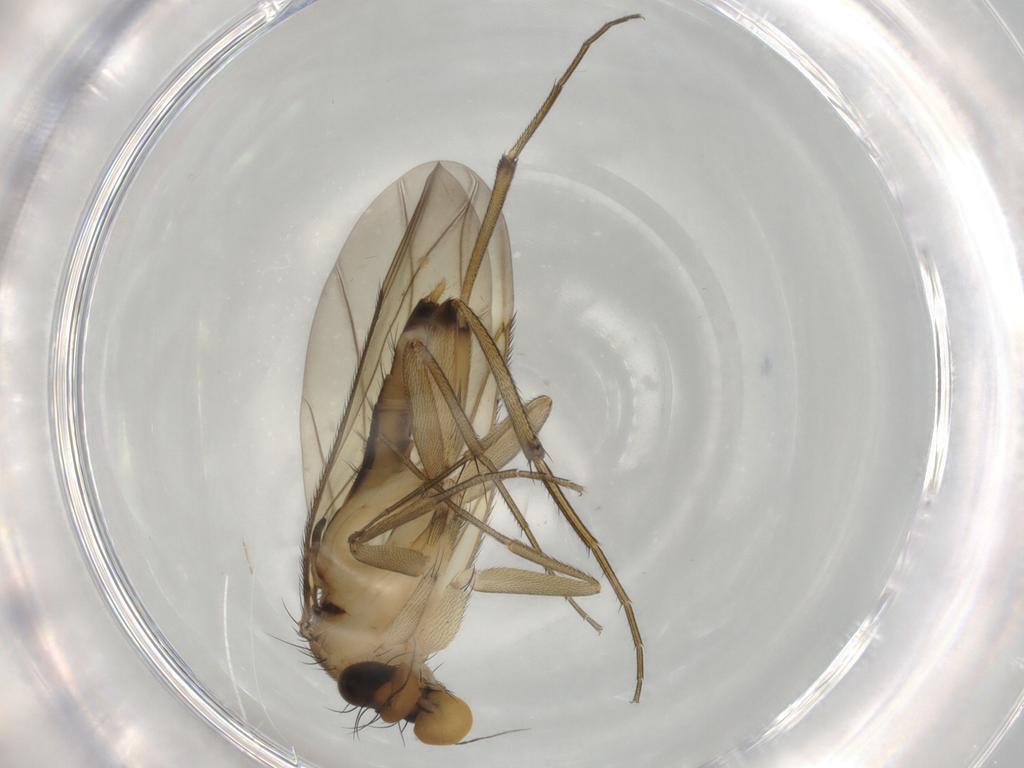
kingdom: Animalia
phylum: Arthropoda
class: Insecta
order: Diptera
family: Phoridae
